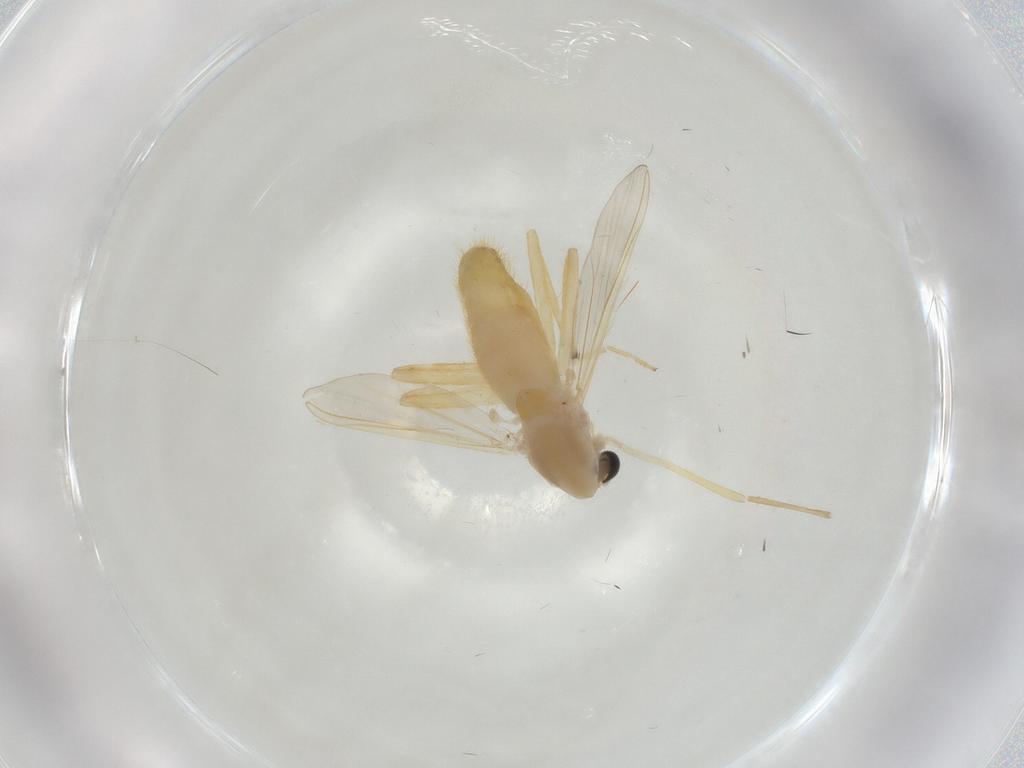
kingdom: Animalia
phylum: Arthropoda
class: Insecta
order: Diptera
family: Chironomidae
